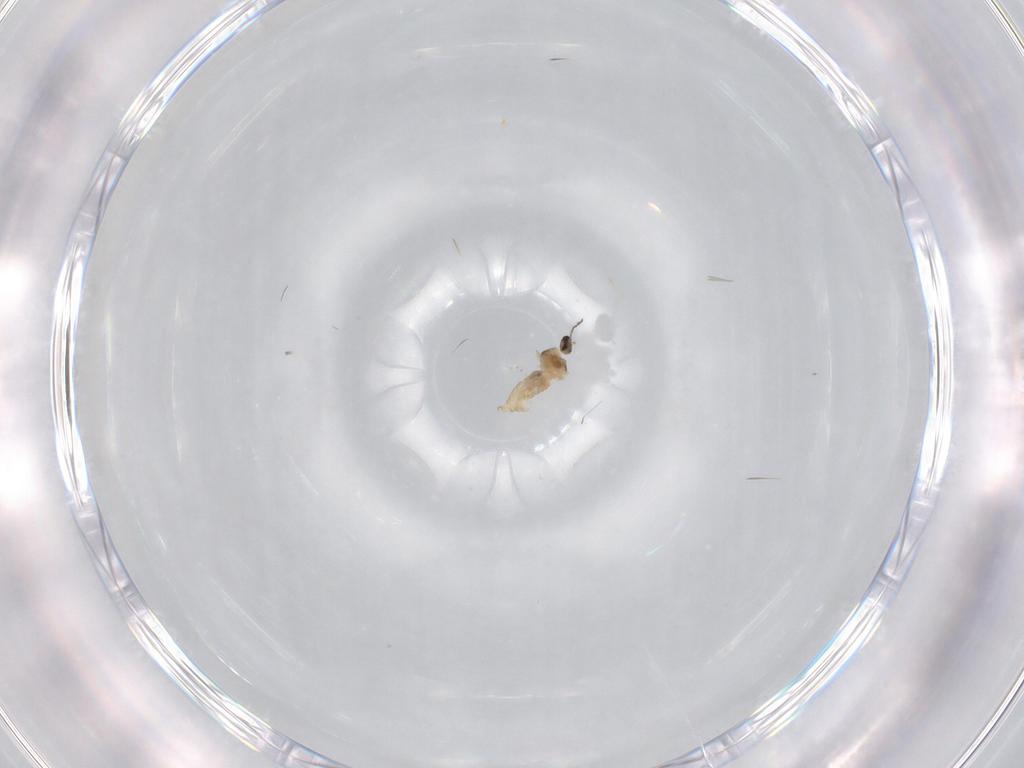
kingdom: Animalia
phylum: Arthropoda
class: Insecta
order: Diptera
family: Cecidomyiidae
